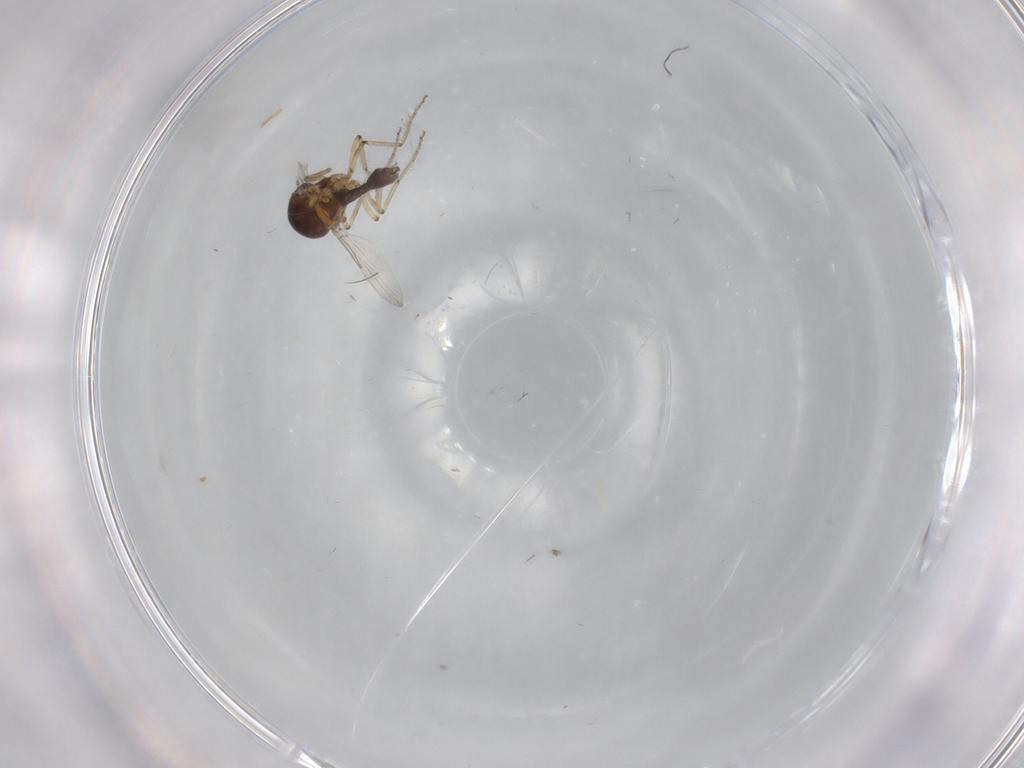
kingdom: Animalia
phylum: Arthropoda
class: Insecta
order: Diptera
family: Ceratopogonidae
